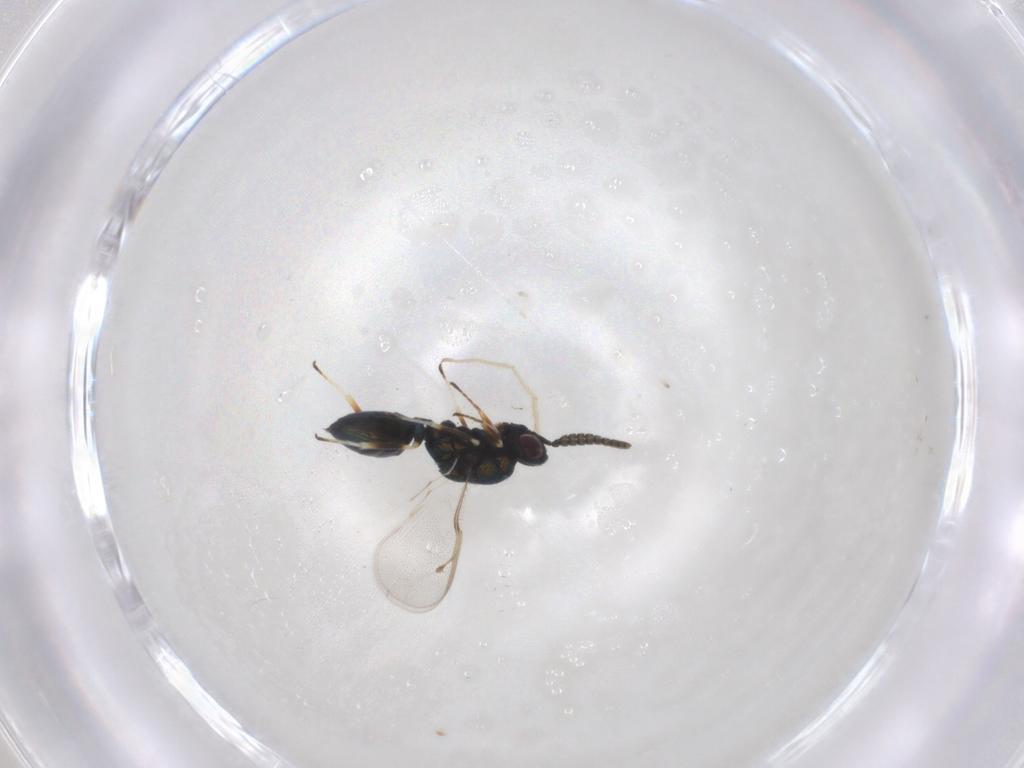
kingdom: Animalia
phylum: Arthropoda
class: Insecta
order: Hymenoptera
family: Pteromalidae
